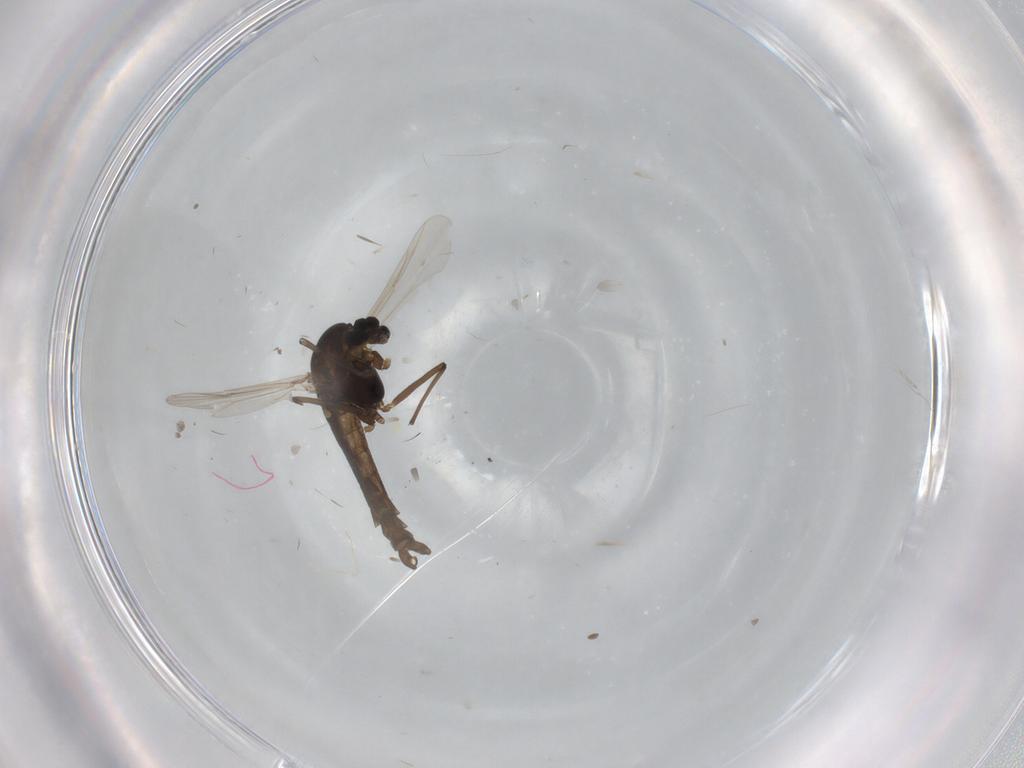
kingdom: Animalia
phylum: Arthropoda
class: Insecta
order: Diptera
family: Chironomidae
